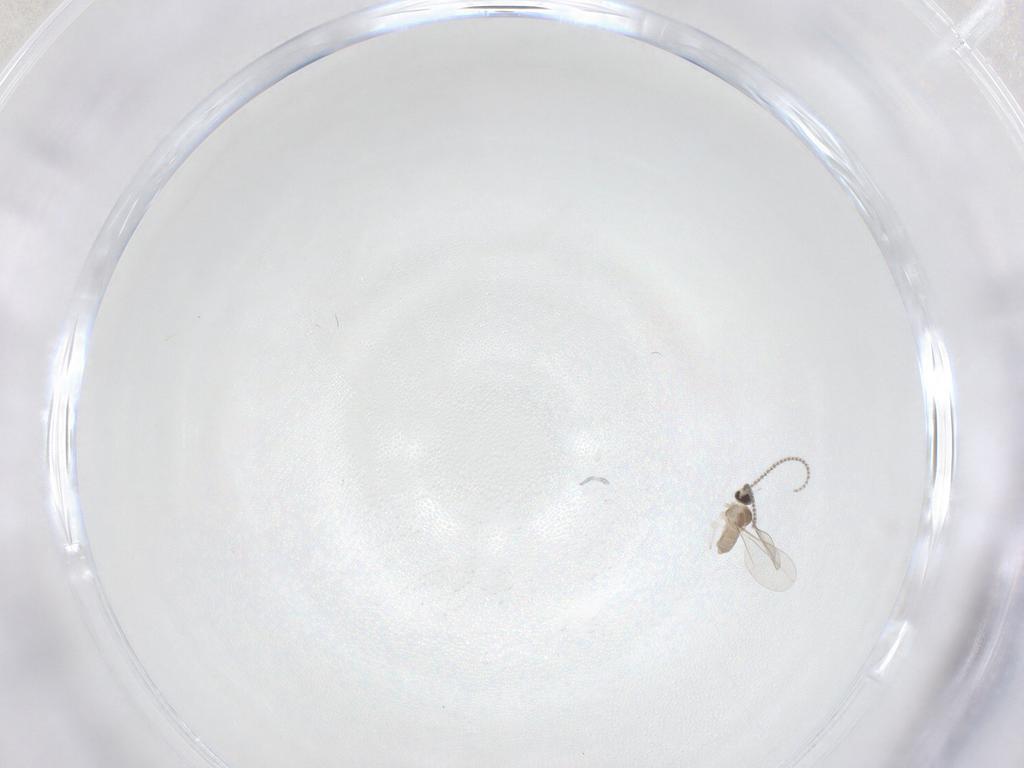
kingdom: Animalia
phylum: Arthropoda
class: Insecta
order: Diptera
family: Cecidomyiidae
